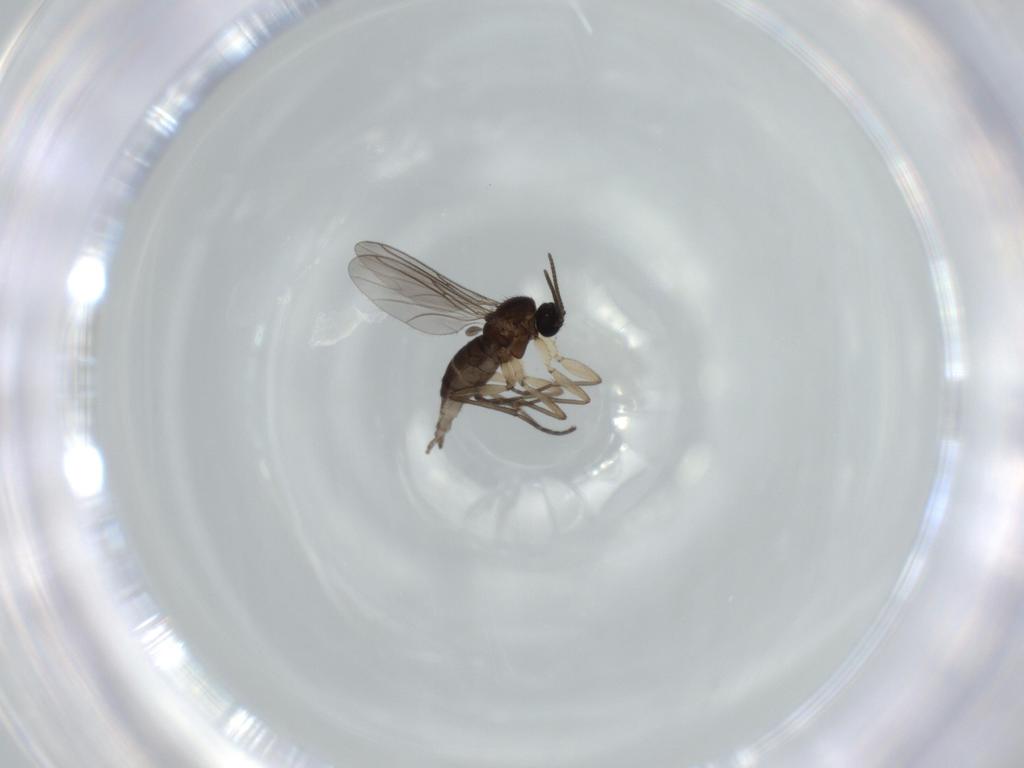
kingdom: Animalia
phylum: Arthropoda
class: Insecta
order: Diptera
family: Sciaridae
